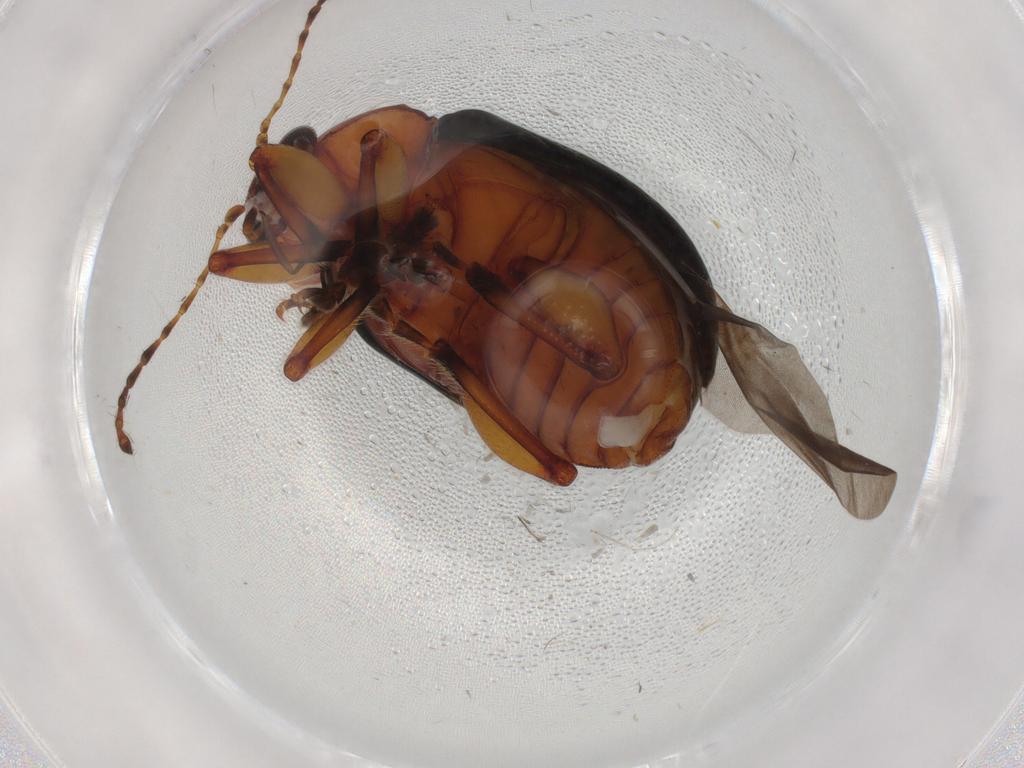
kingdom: Animalia
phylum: Arthropoda
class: Insecta
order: Coleoptera
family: Chrysomelidae
